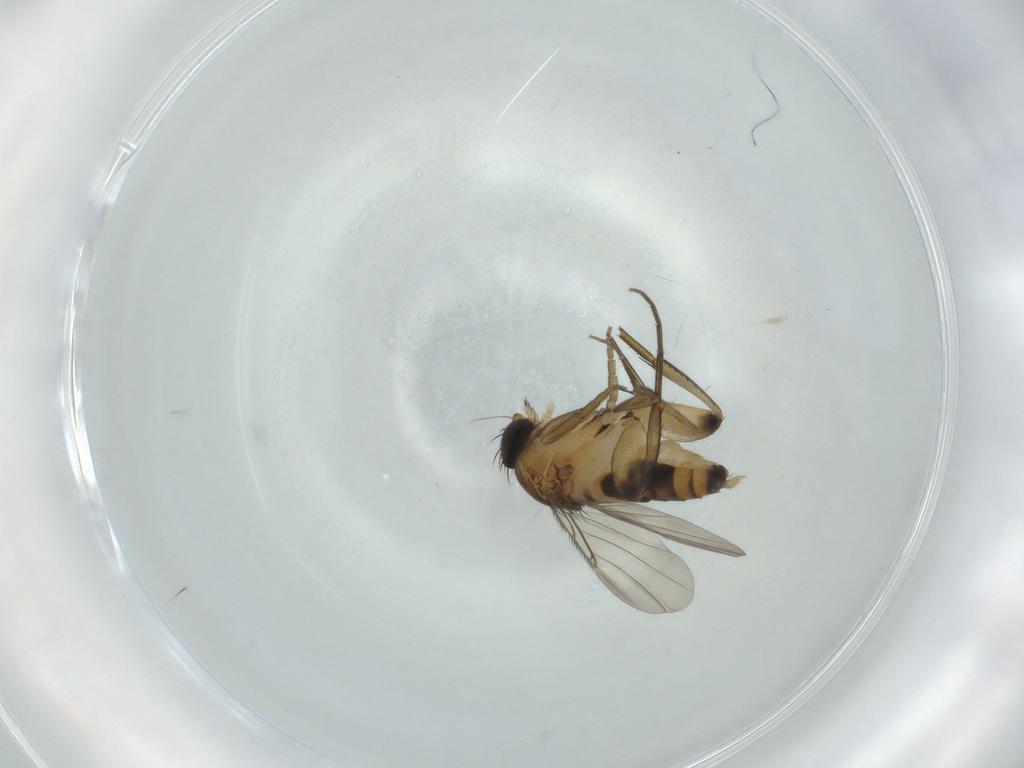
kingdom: Animalia
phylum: Arthropoda
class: Insecta
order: Diptera
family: Phoridae
